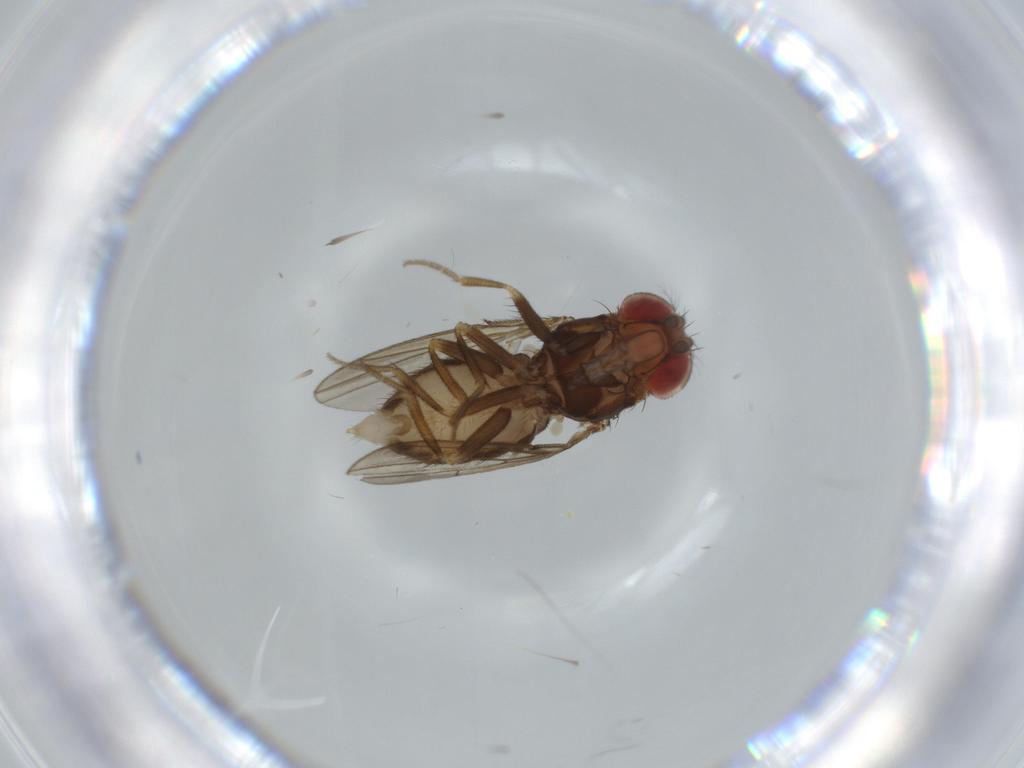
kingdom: Animalia
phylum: Arthropoda
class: Insecta
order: Diptera
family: Drosophilidae
